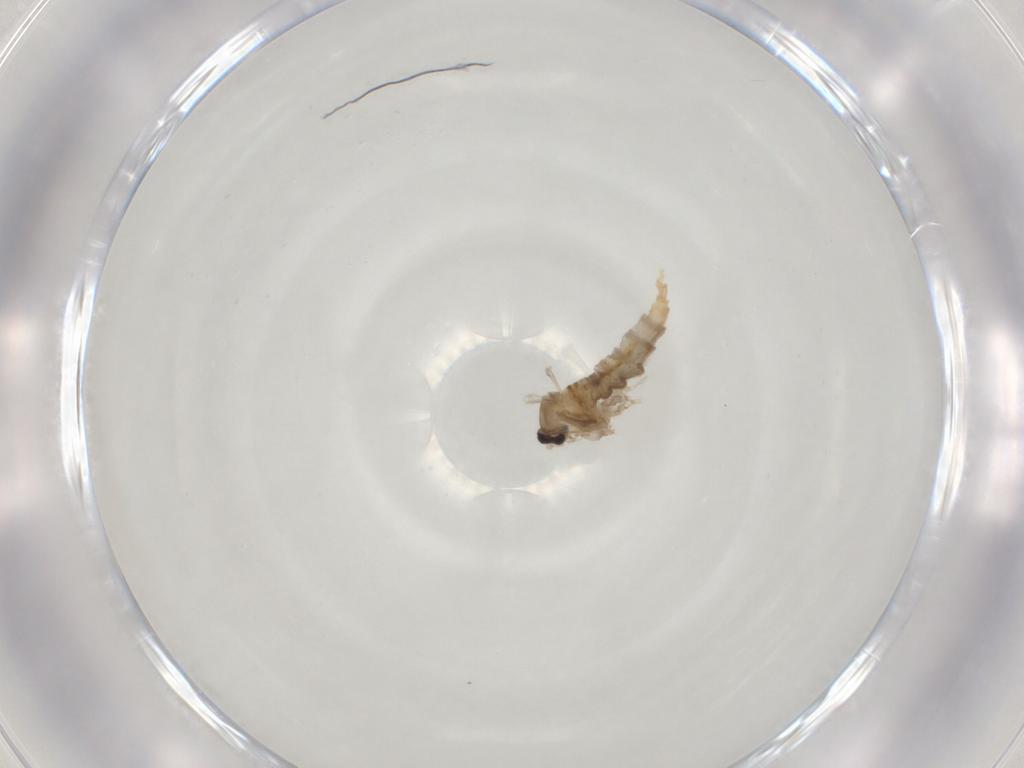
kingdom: Animalia
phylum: Arthropoda
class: Insecta
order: Diptera
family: Cecidomyiidae
